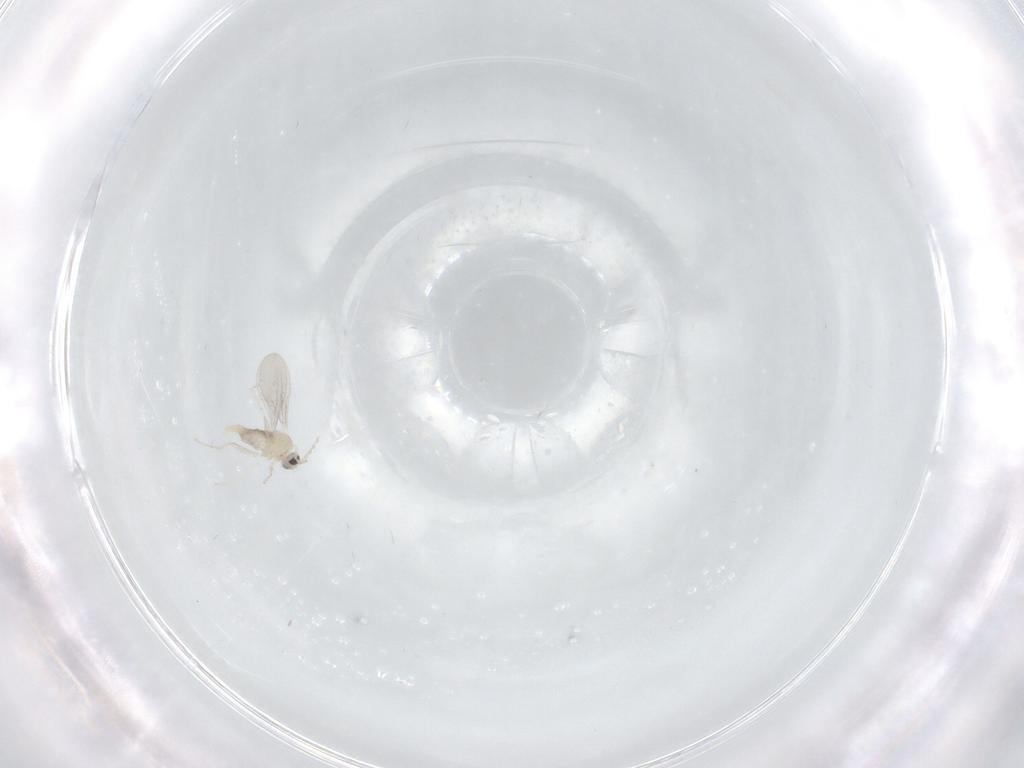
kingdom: Animalia
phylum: Arthropoda
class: Insecta
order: Diptera
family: Cecidomyiidae
